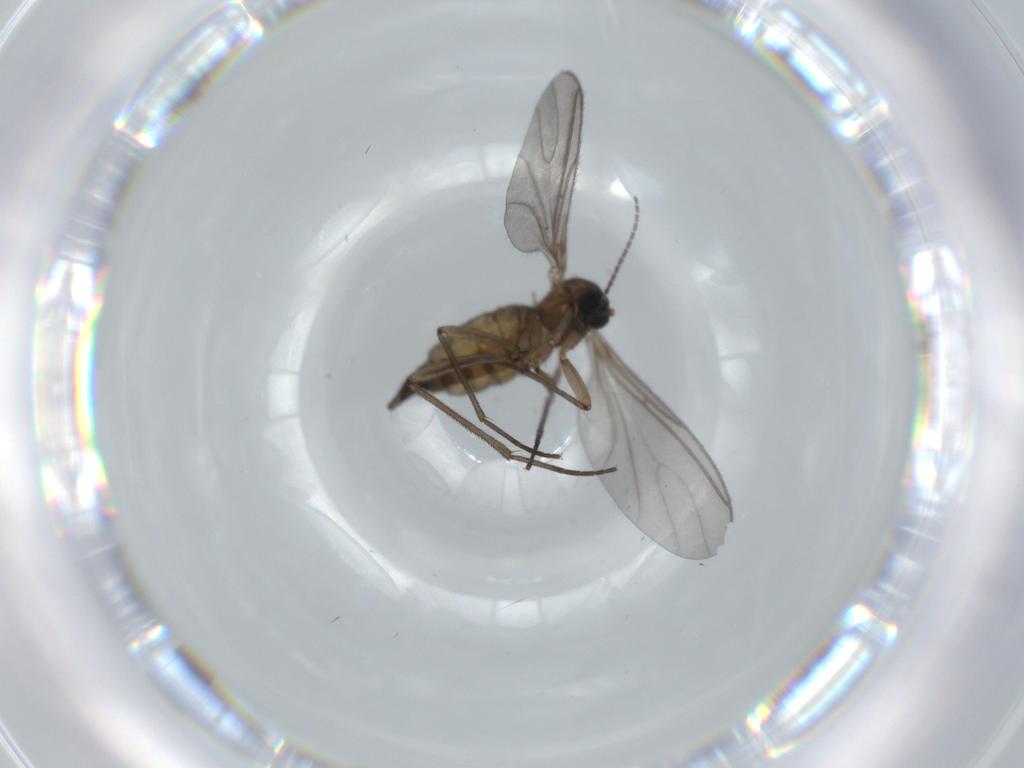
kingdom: Animalia
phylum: Arthropoda
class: Insecta
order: Diptera
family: Sciaridae
